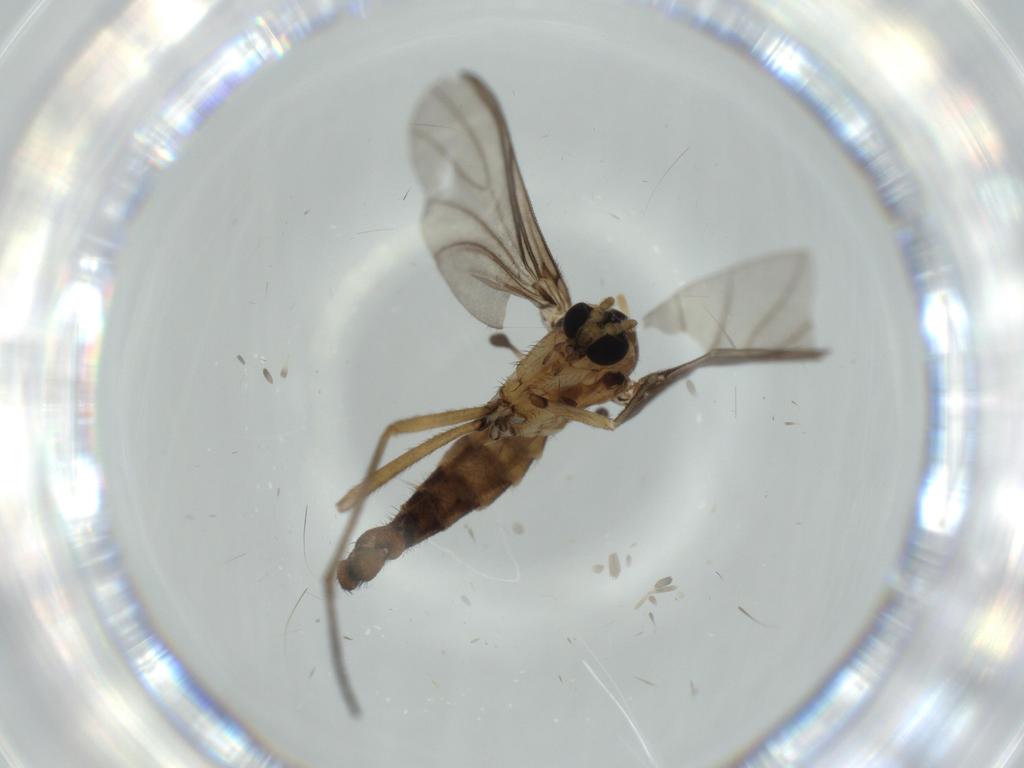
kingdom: Animalia
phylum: Arthropoda
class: Insecta
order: Diptera
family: Sciaridae
